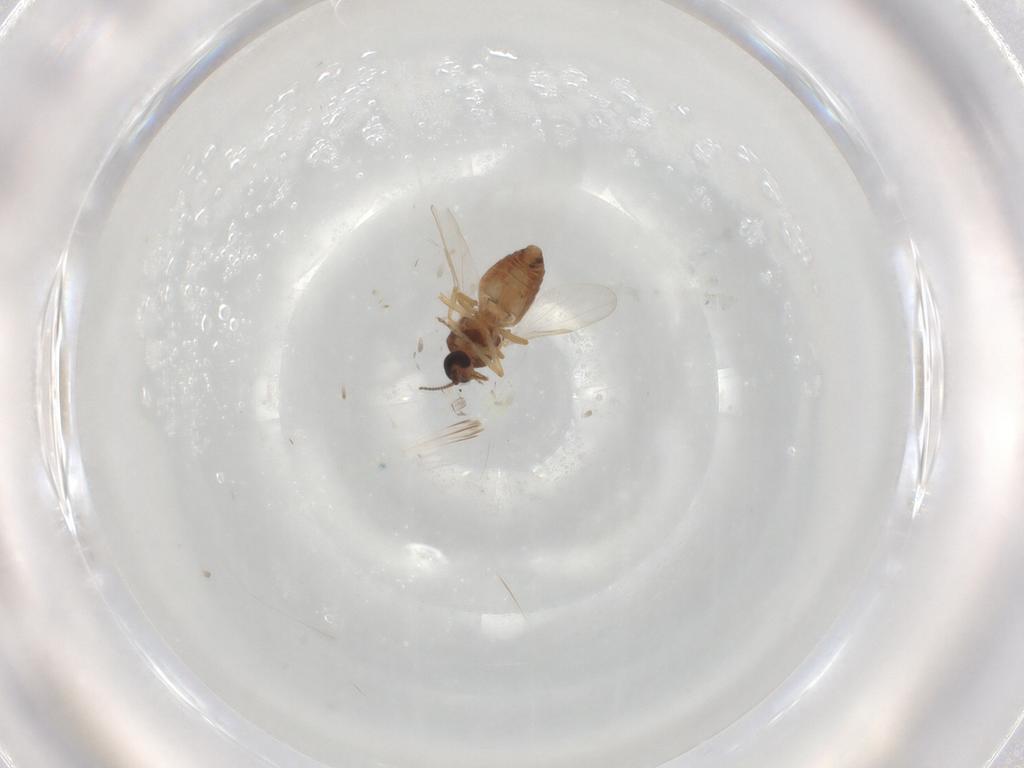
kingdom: Animalia
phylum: Arthropoda
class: Insecta
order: Diptera
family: Ceratopogonidae
